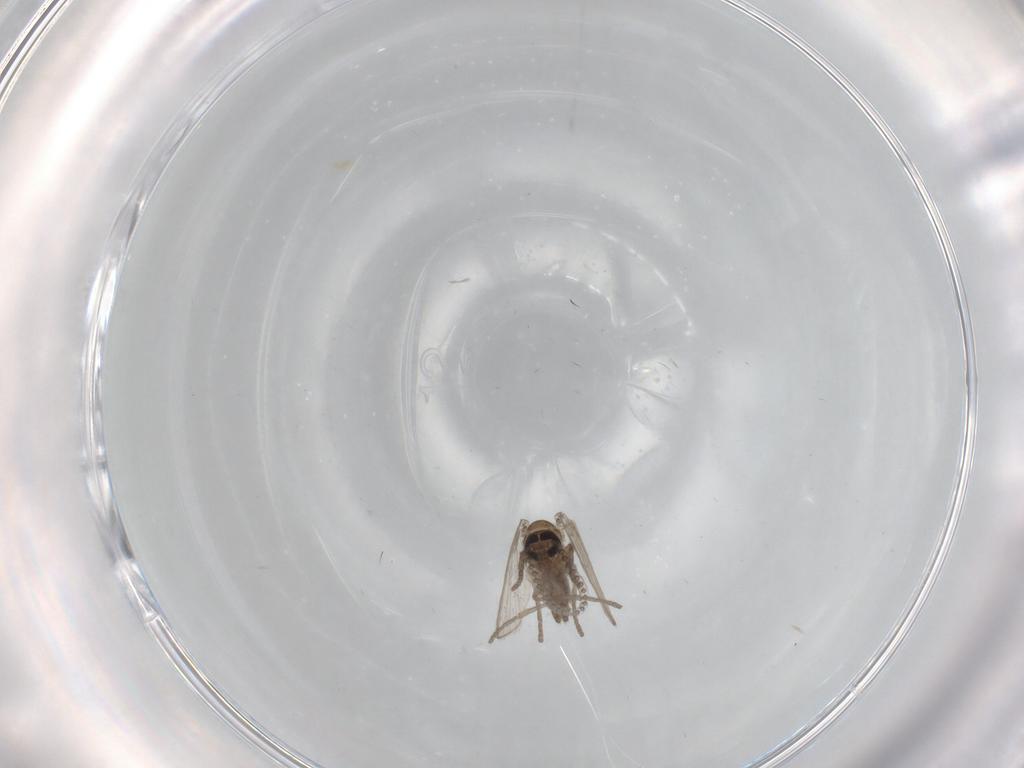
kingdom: Animalia
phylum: Arthropoda
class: Insecta
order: Diptera
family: Psychodidae
